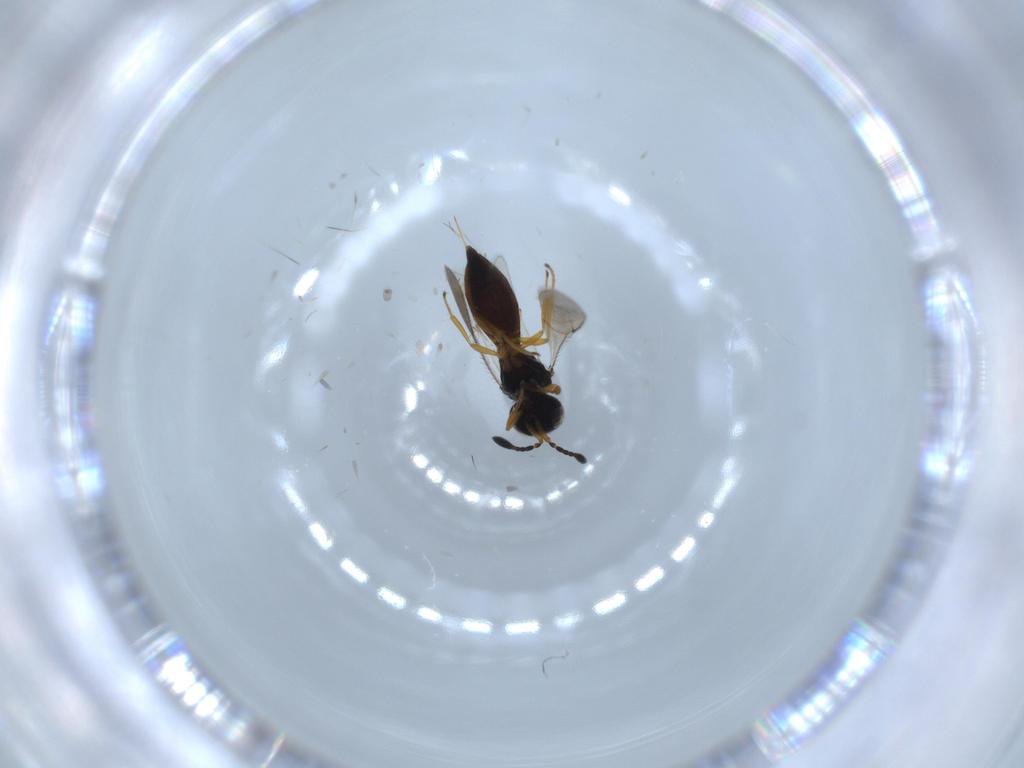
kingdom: Animalia
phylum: Arthropoda
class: Insecta
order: Hymenoptera
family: Scelionidae
